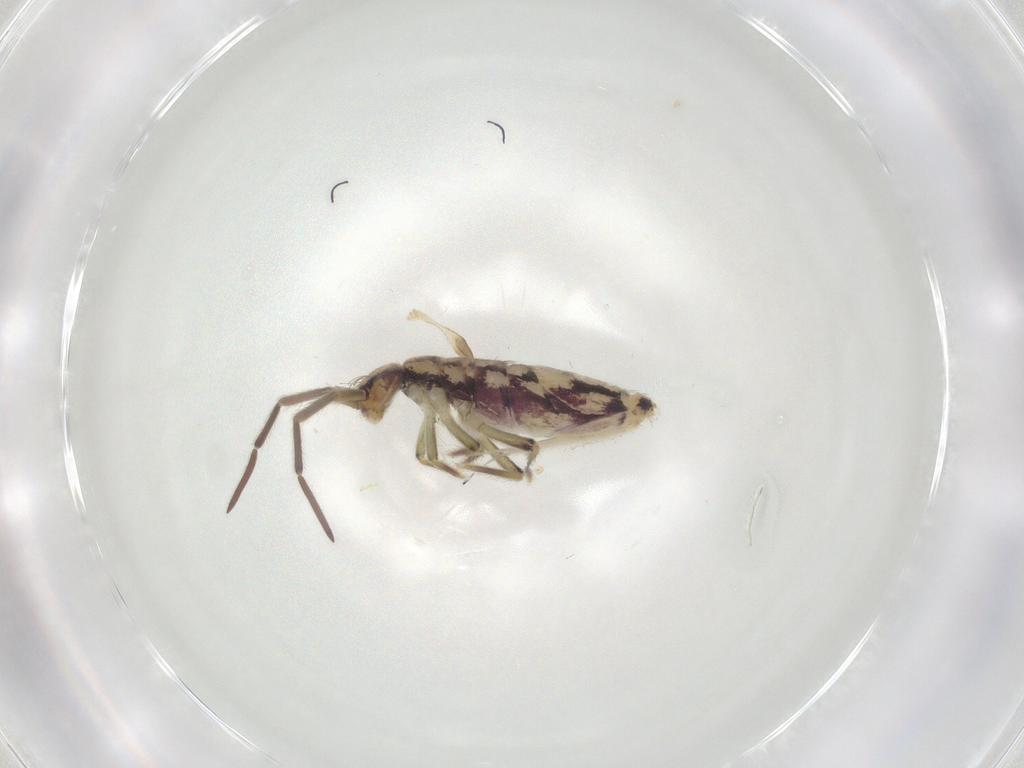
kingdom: Animalia
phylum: Arthropoda
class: Collembola
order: Entomobryomorpha
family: Entomobryidae
